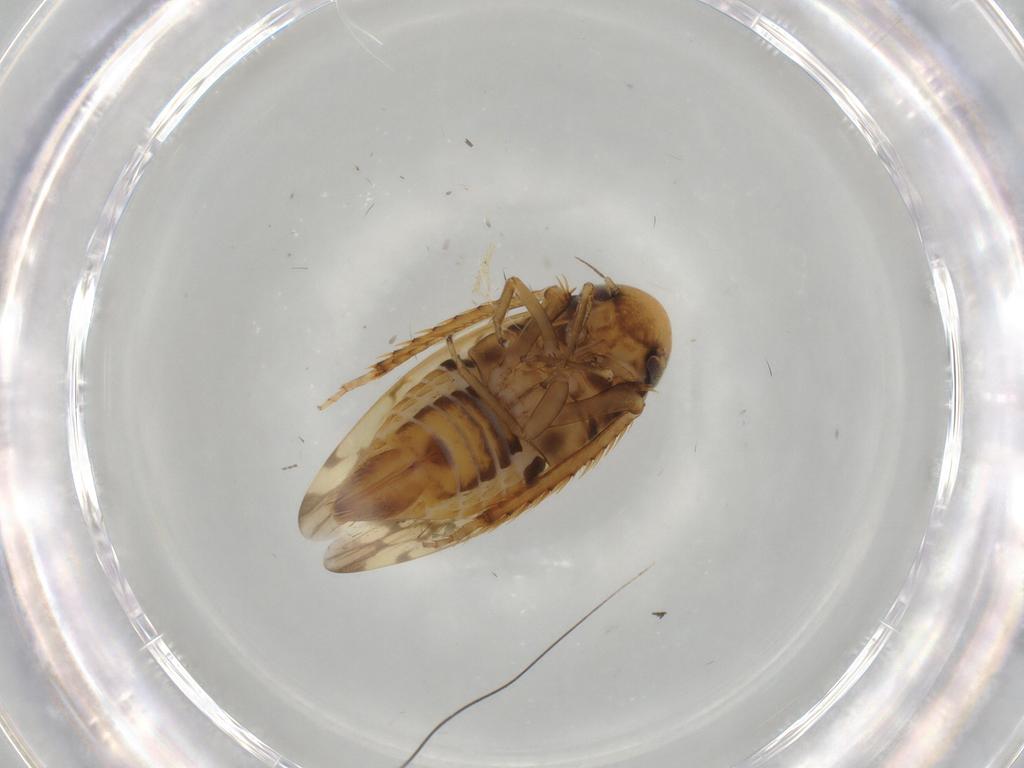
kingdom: Animalia
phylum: Arthropoda
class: Insecta
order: Hemiptera
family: Cicadellidae
